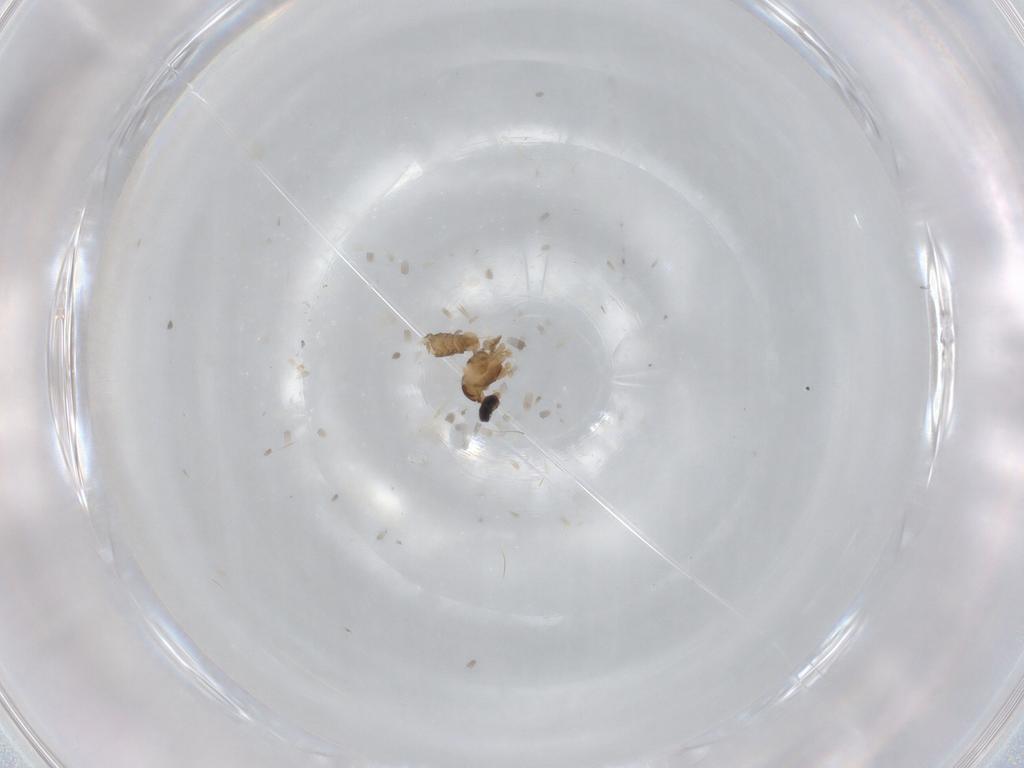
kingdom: Animalia
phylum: Arthropoda
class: Insecta
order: Diptera
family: Cecidomyiidae
